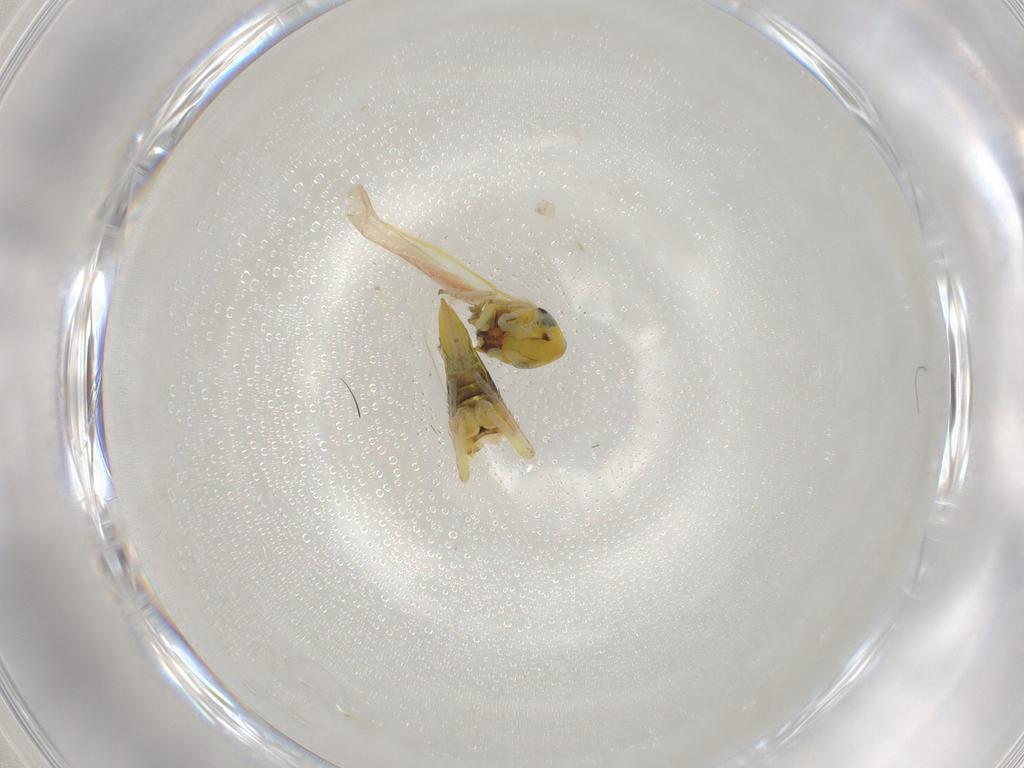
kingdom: Animalia
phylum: Arthropoda
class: Insecta
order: Hemiptera
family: Cicadellidae
